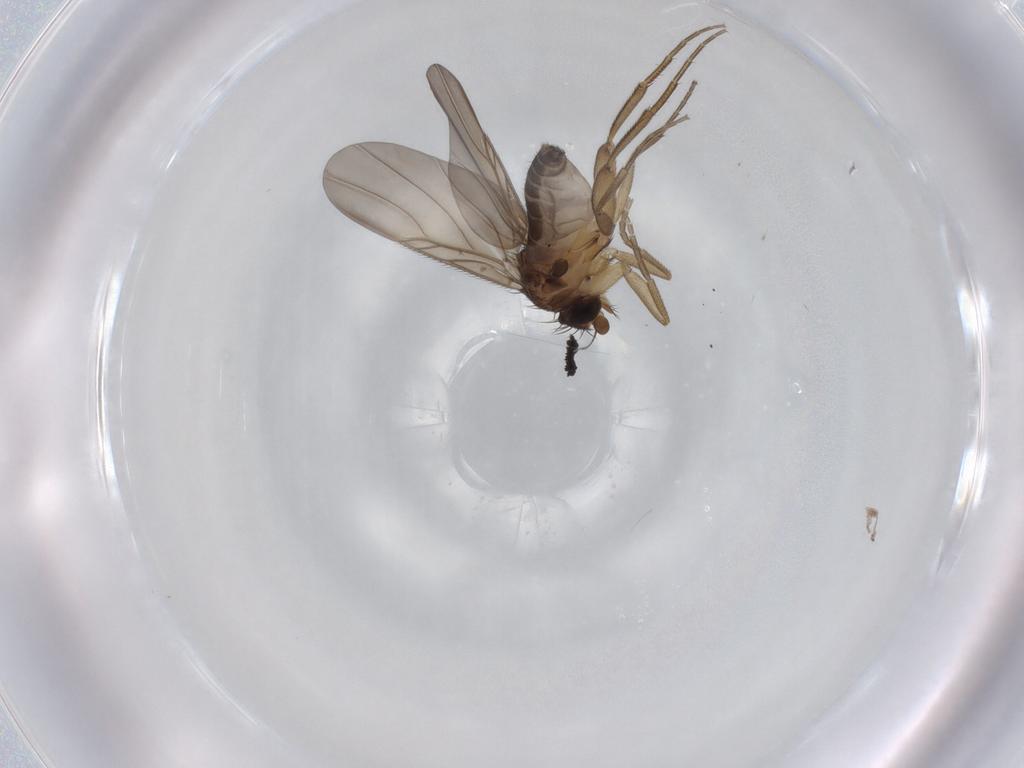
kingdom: Animalia
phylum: Arthropoda
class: Insecta
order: Diptera
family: Phoridae
